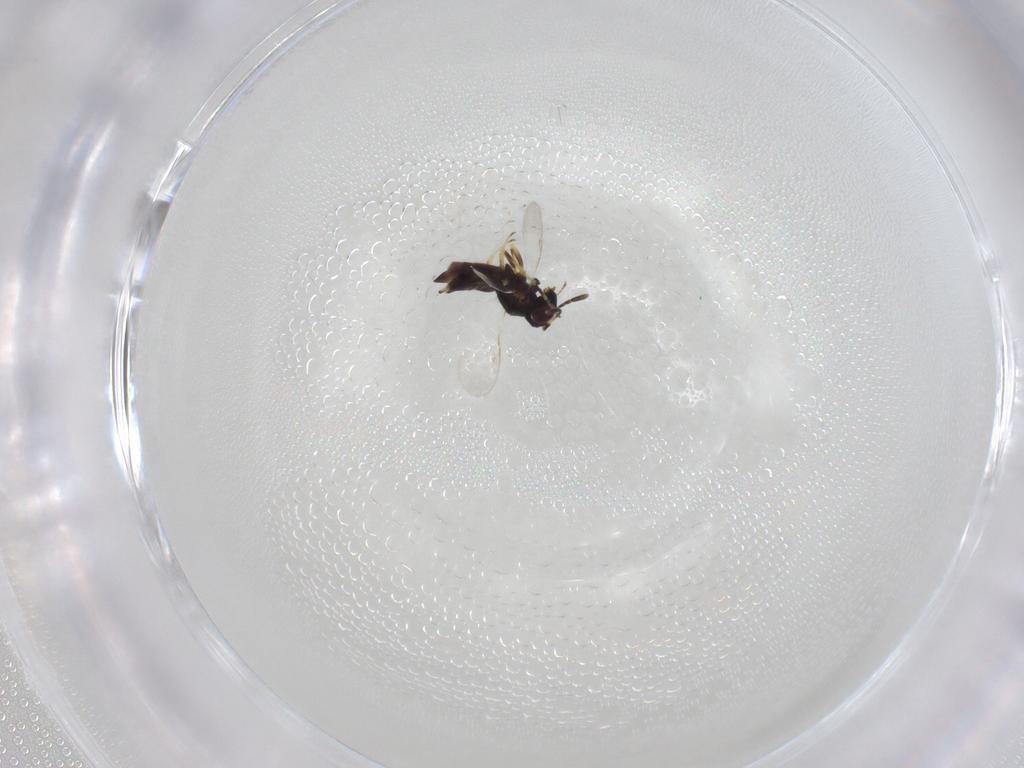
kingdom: Animalia
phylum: Arthropoda
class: Insecta
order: Hymenoptera
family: Encyrtidae
